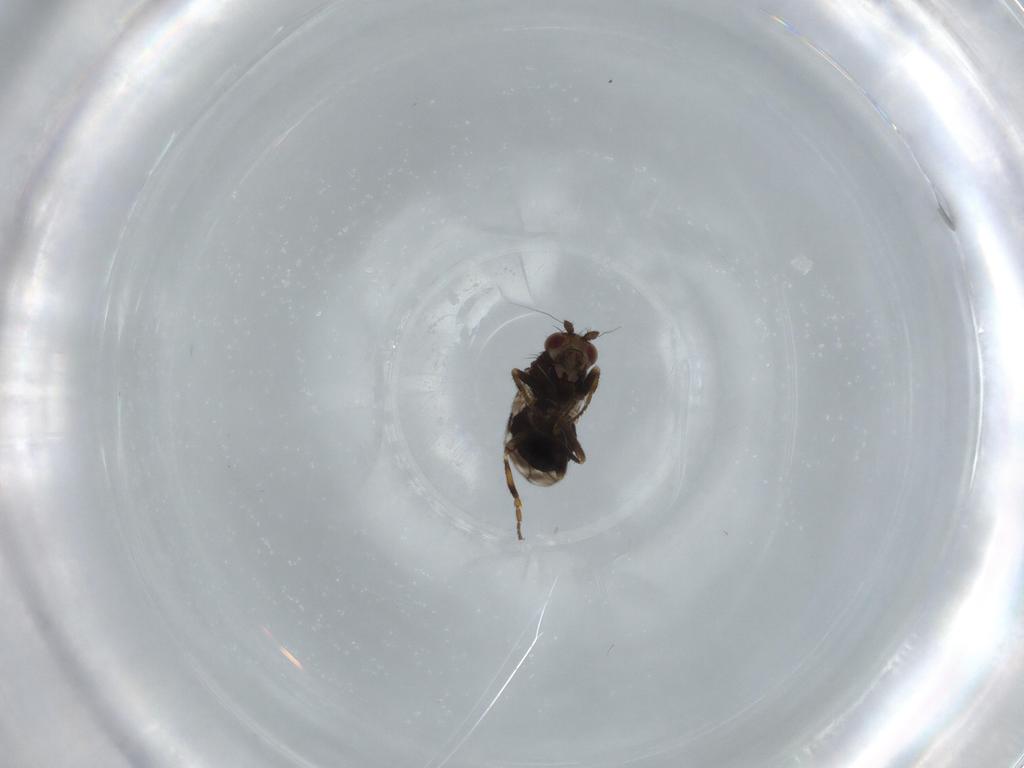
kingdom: Animalia
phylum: Arthropoda
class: Insecta
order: Diptera
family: Sphaeroceridae
